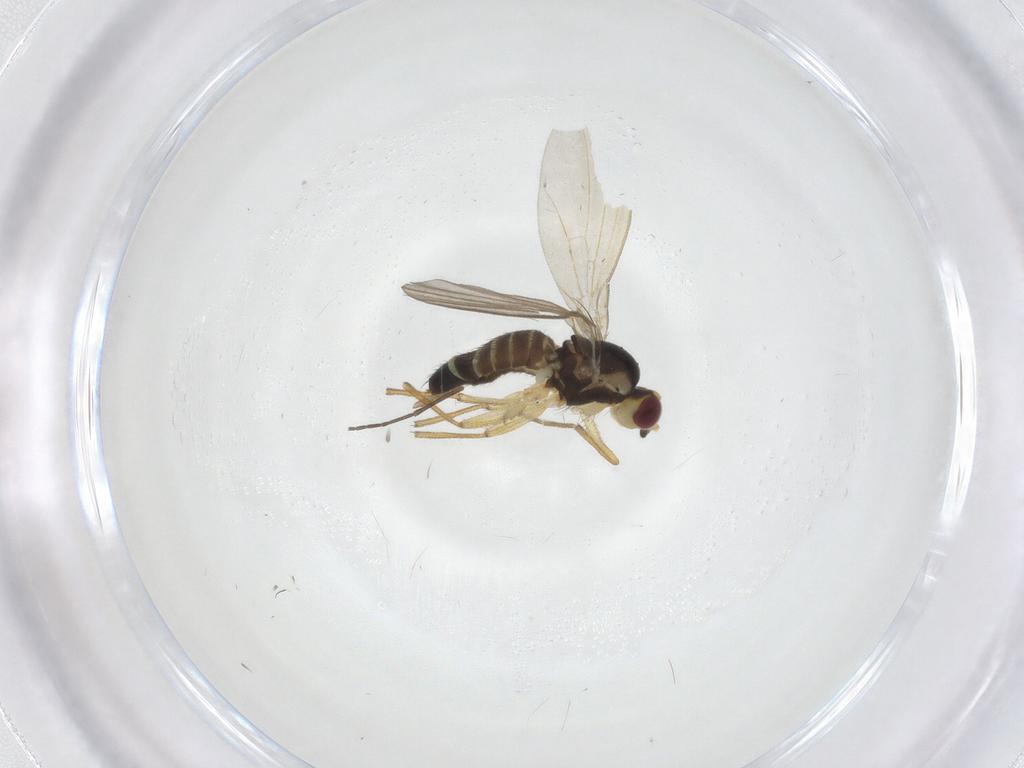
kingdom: Animalia
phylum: Arthropoda
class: Insecta
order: Diptera
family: Agromyzidae
